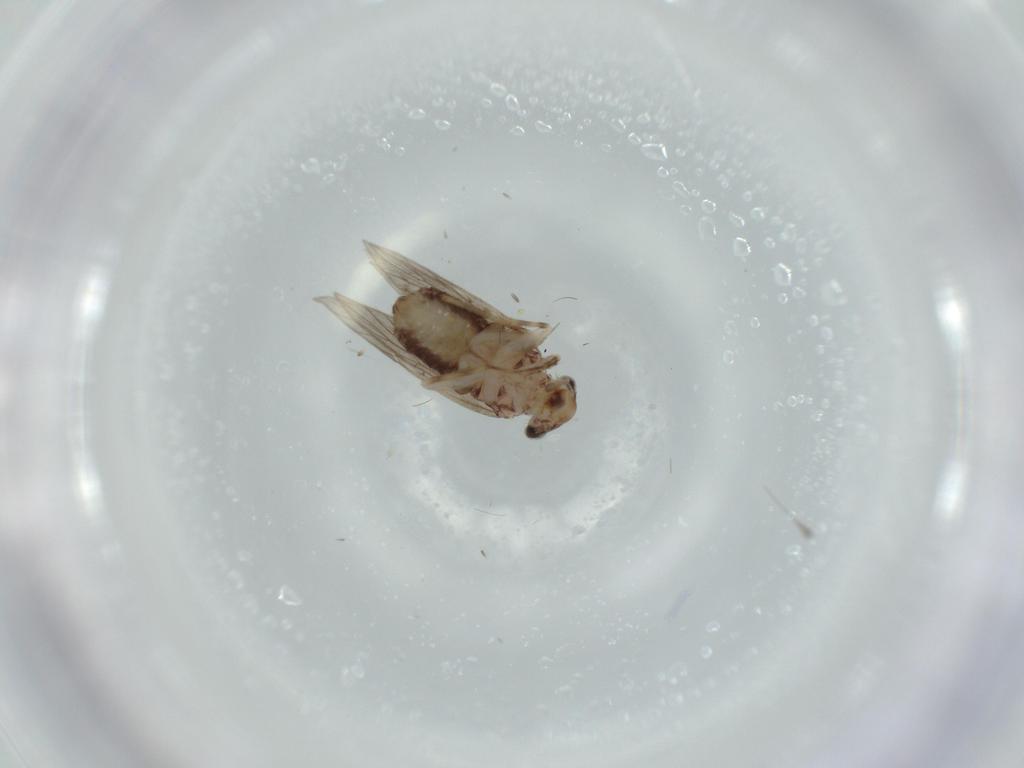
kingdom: Animalia
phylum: Arthropoda
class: Insecta
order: Psocodea
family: Lepidopsocidae
